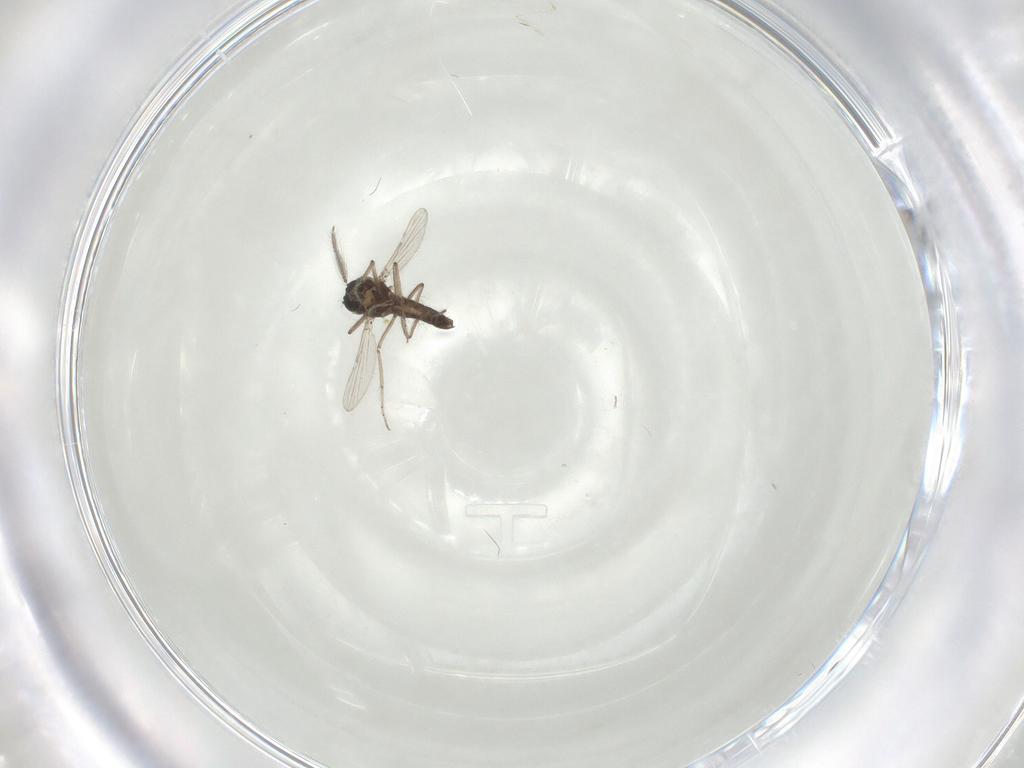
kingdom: Animalia
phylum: Arthropoda
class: Insecta
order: Diptera
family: Ceratopogonidae
